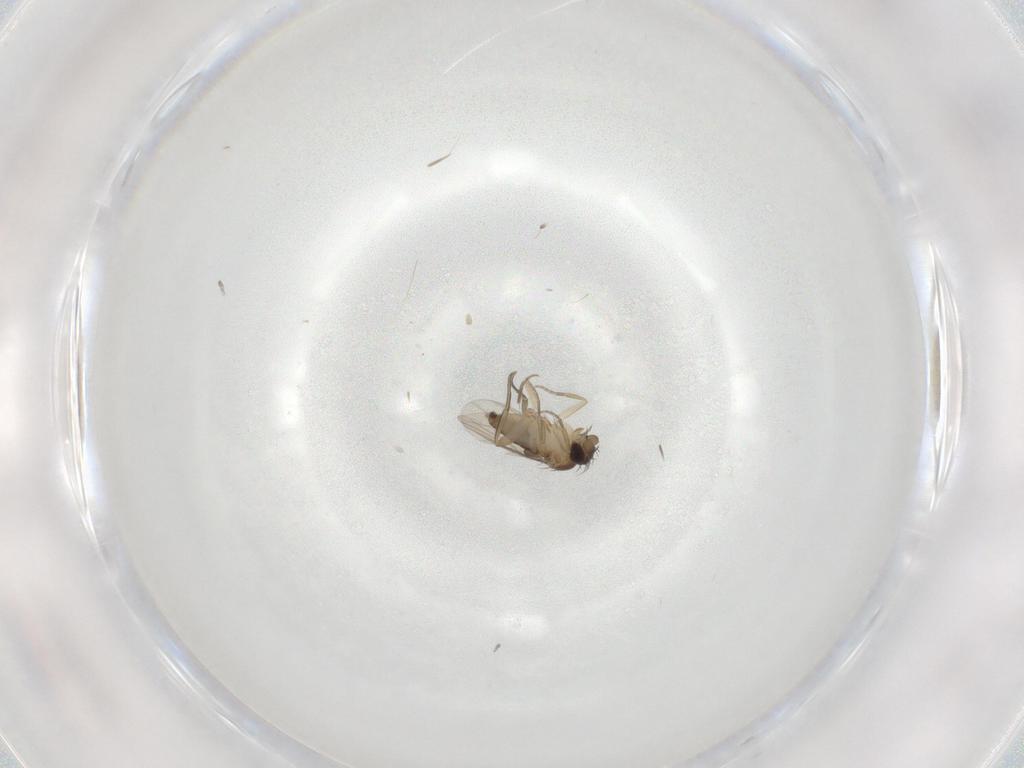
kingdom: Animalia
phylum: Arthropoda
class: Insecta
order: Diptera
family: Phoridae
